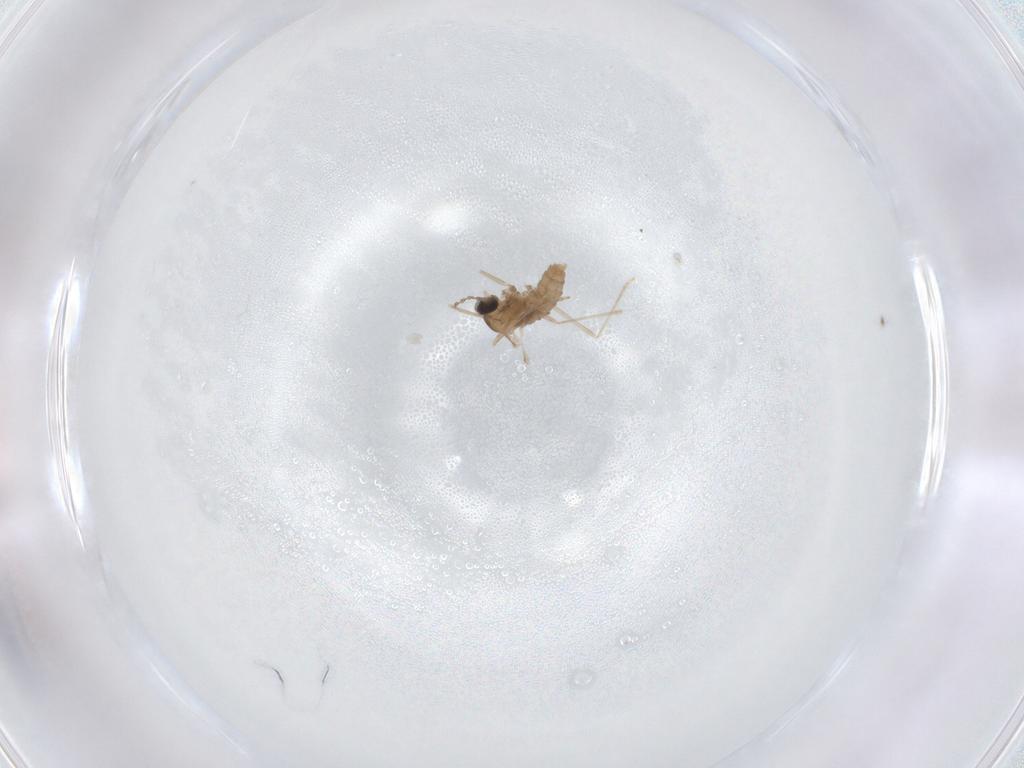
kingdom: Animalia
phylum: Arthropoda
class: Insecta
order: Diptera
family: Cecidomyiidae
